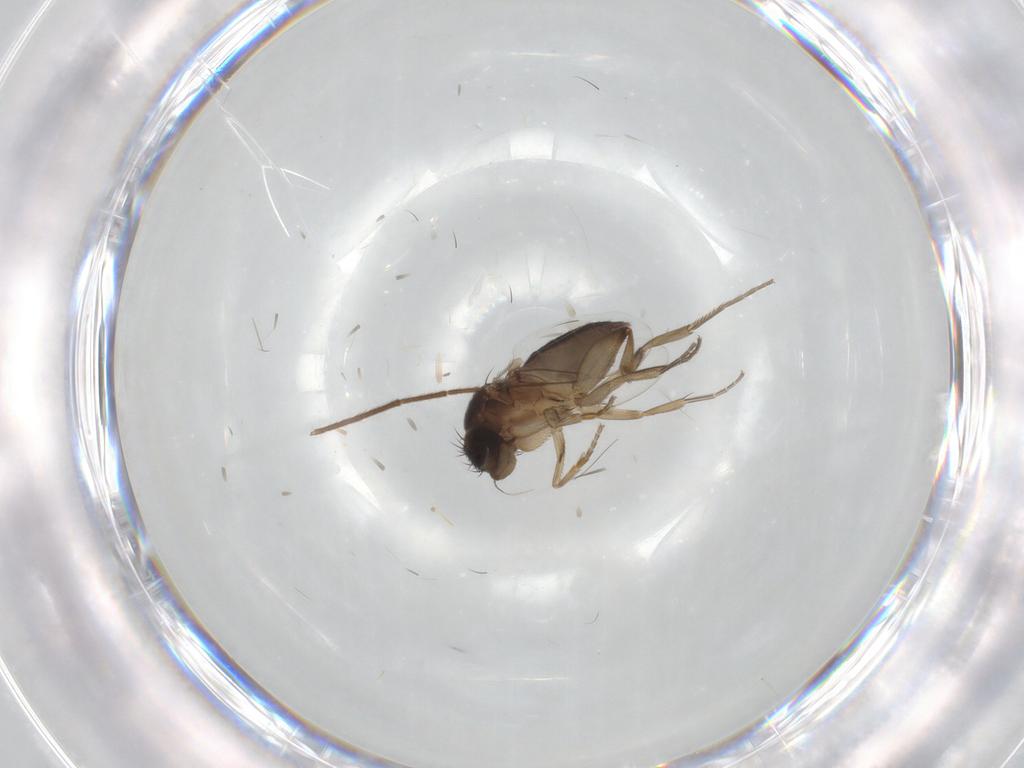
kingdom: Animalia
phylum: Arthropoda
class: Insecta
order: Diptera
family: Phoridae
